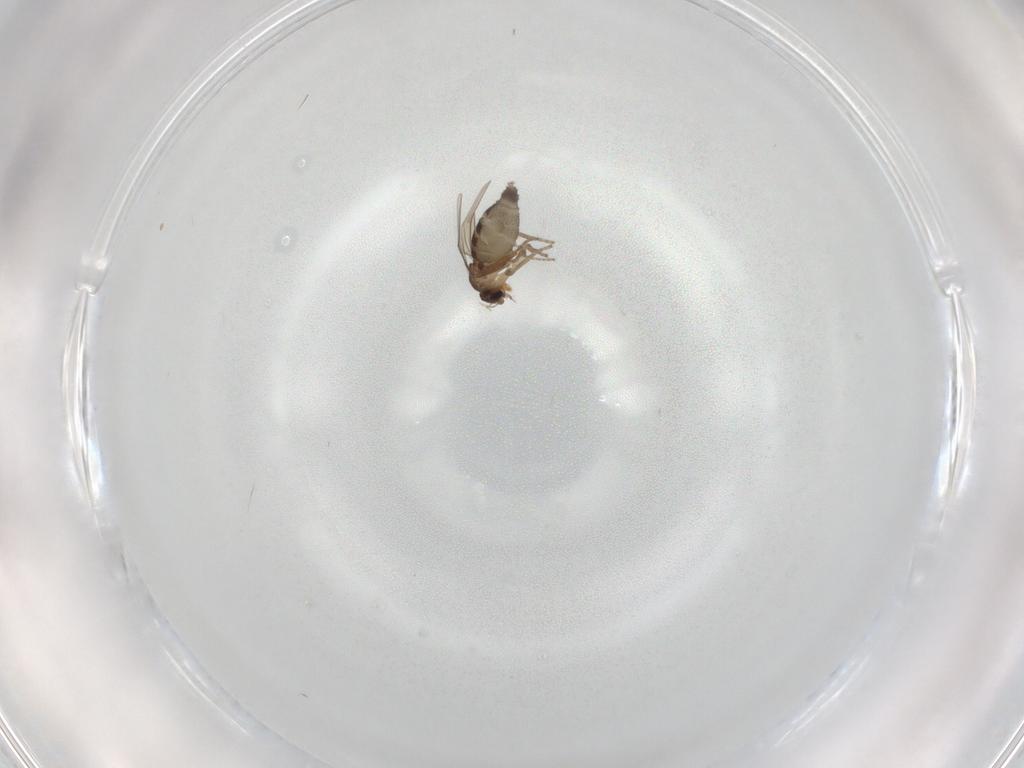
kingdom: Animalia
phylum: Arthropoda
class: Insecta
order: Diptera
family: Phoridae
